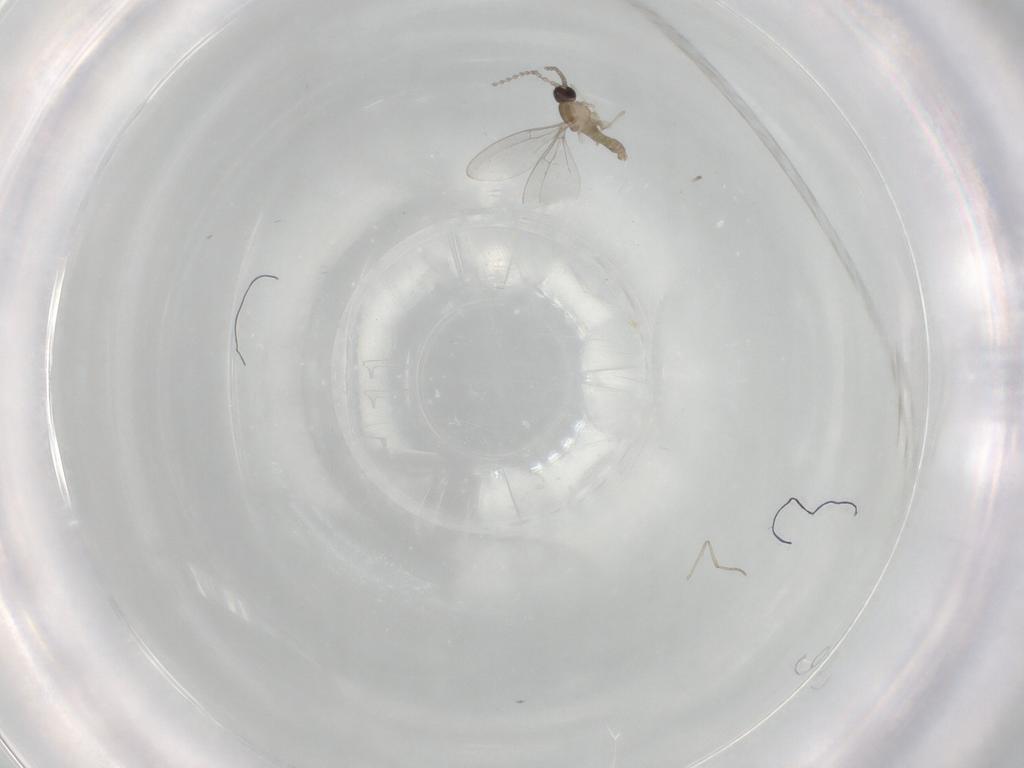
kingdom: Animalia
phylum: Arthropoda
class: Insecta
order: Diptera
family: Cecidomyiidae
